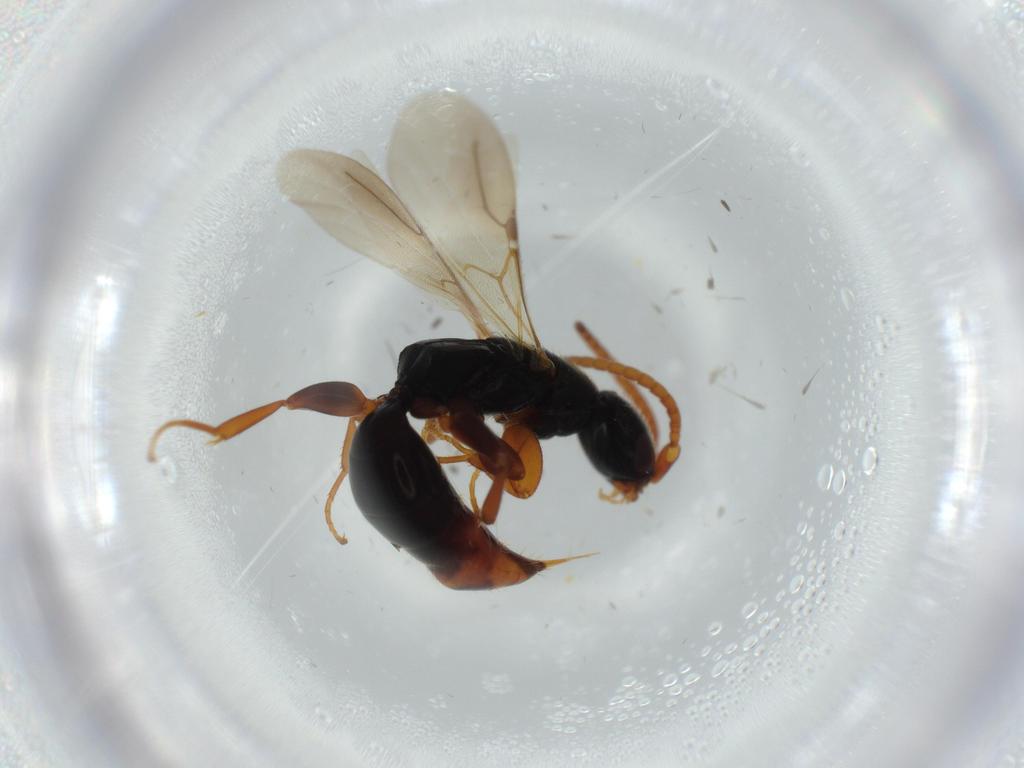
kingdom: Animalia
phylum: Arthropoda
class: Insecta
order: Hymenoptera
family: Bethylidae
